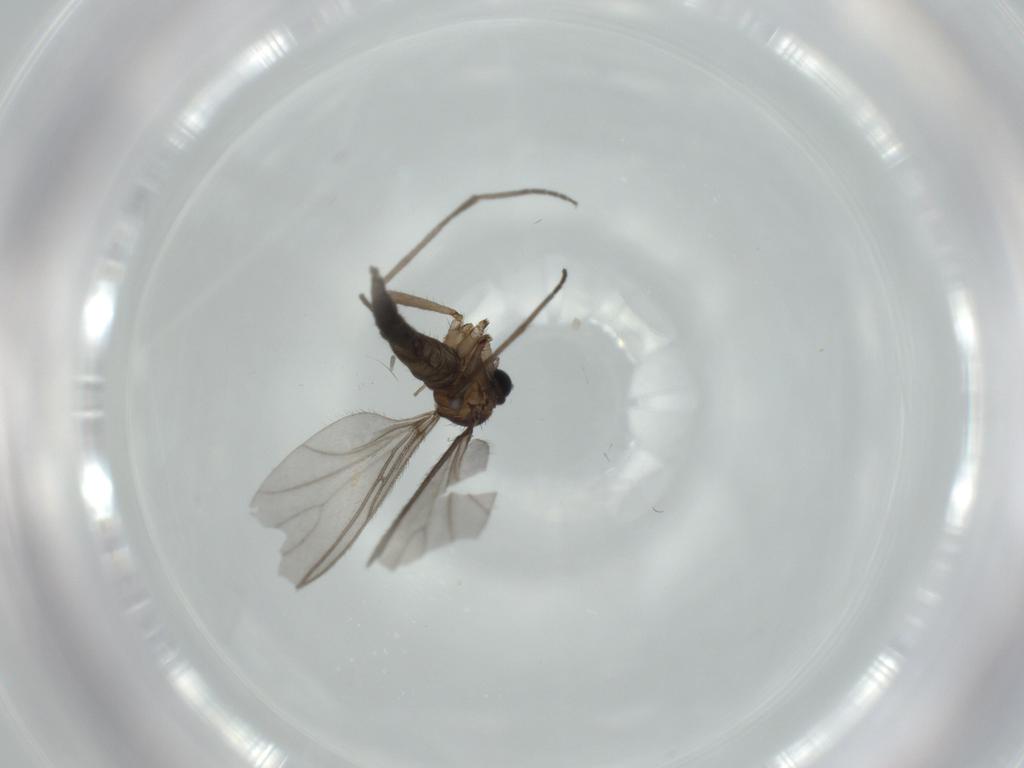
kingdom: Animalia
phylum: Arthropoda
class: Insecta
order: Diptera
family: Sciaridae
